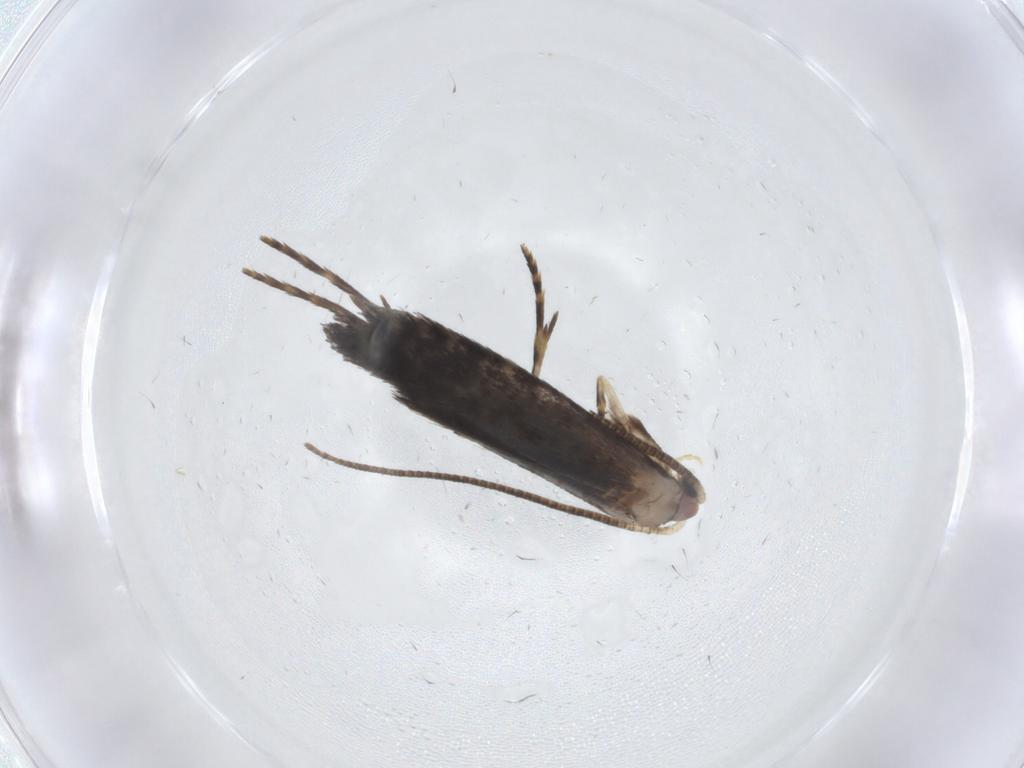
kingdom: Animalia
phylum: Arthropoda
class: Insecta
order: Lepidoptera
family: Tineidae
